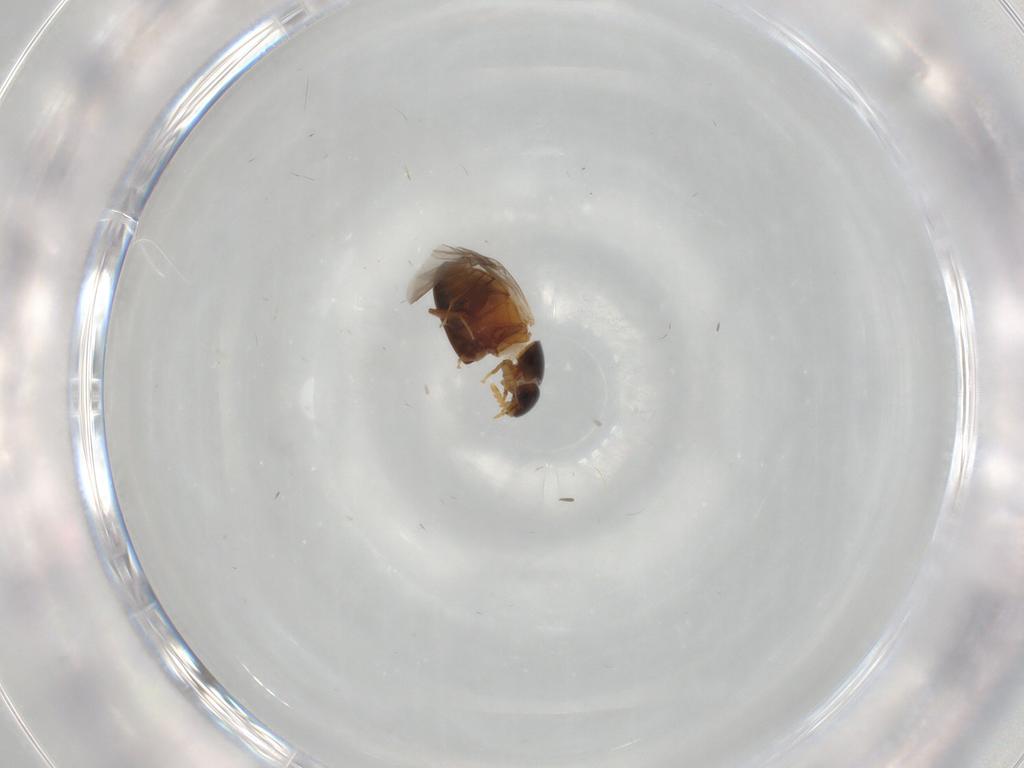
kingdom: Animalia
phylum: Arthropoda
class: Insecta
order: Coleoptera
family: Phalacridae
